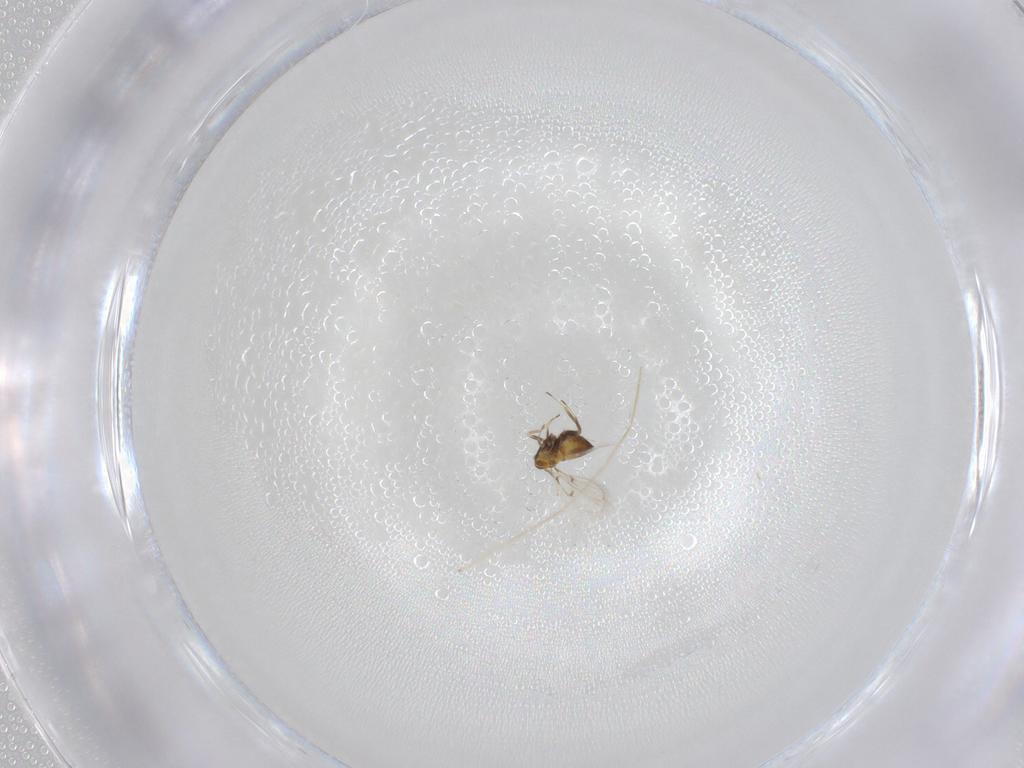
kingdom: Animalia
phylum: Arthropoda
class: Insecta
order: Hymenoptera
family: Trichogrammatidae
